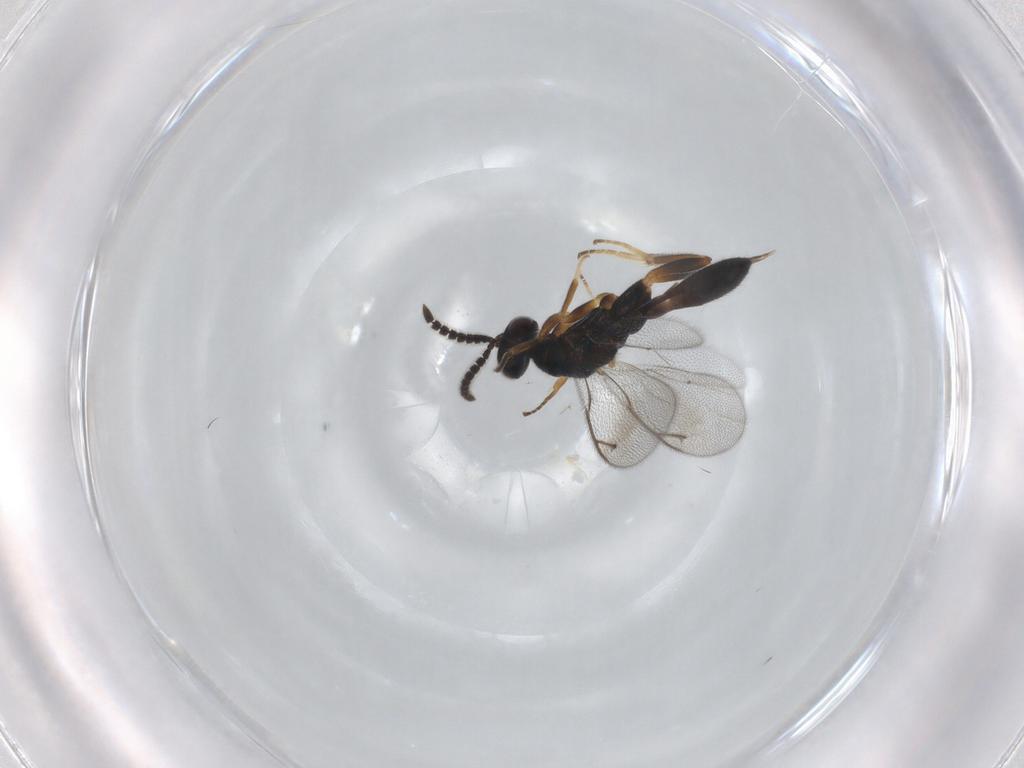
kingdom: Animalia
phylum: Arthropoda
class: Insecta
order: Hymenoptera
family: Cleonyminae
